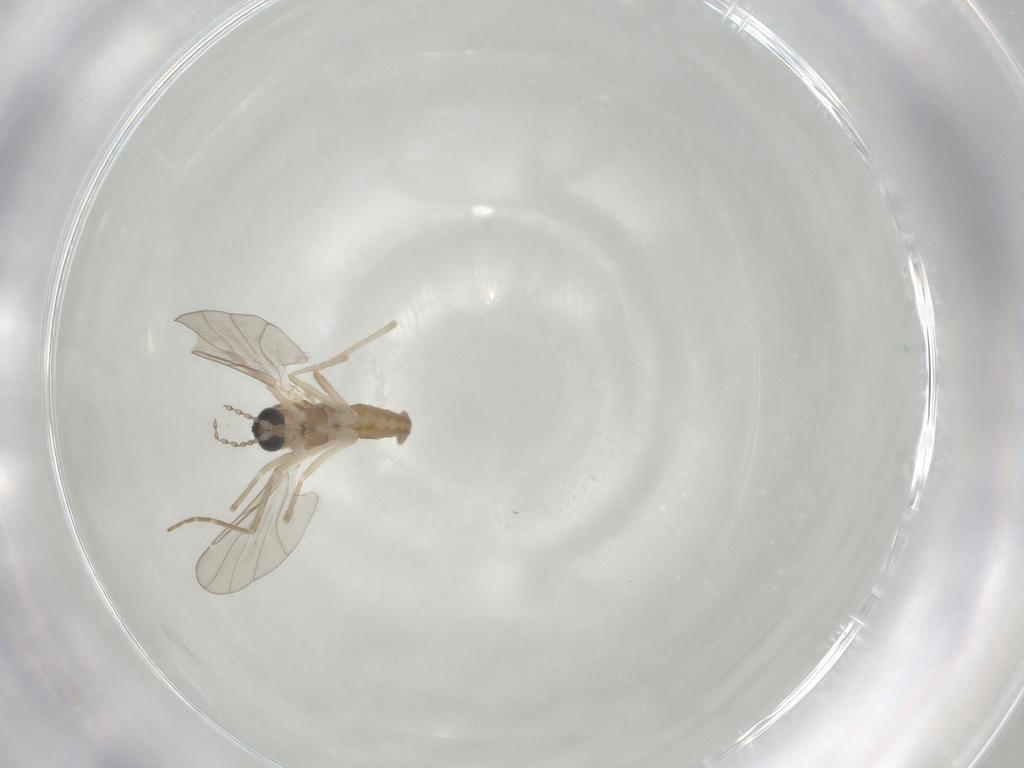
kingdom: Animalia
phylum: Arthropoda
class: Insecta
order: Diptera
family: Cecidomyiidae
